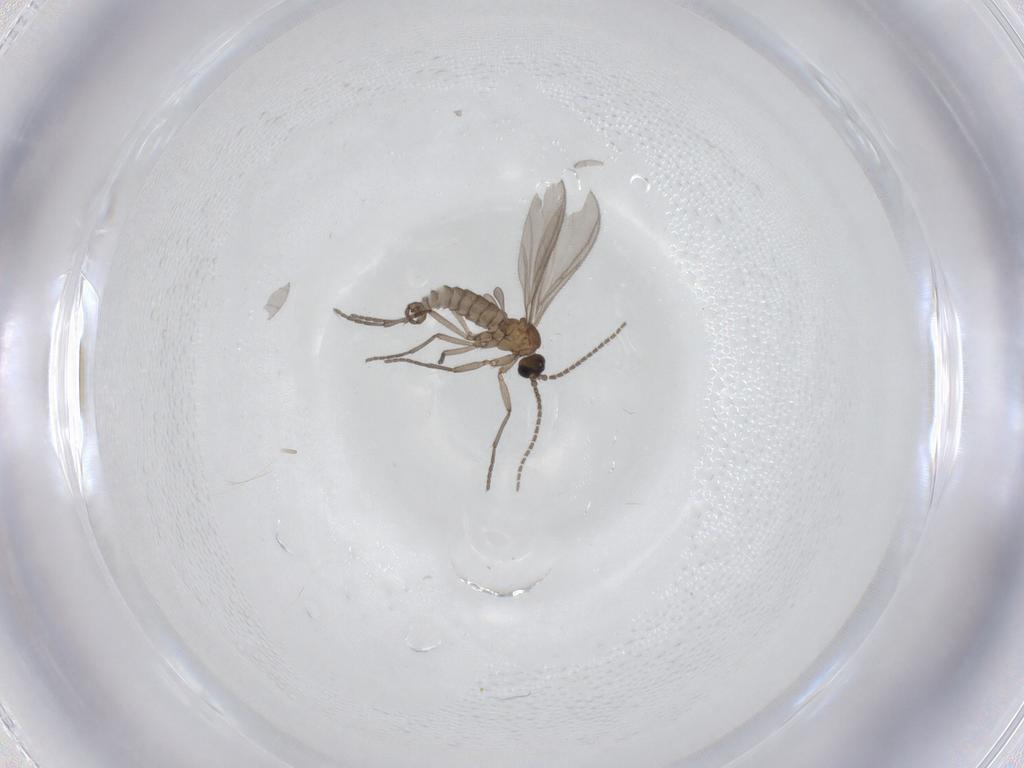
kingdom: Animalia
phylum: Arthropoda
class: Insecta
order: Diptera
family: Sciaridae
